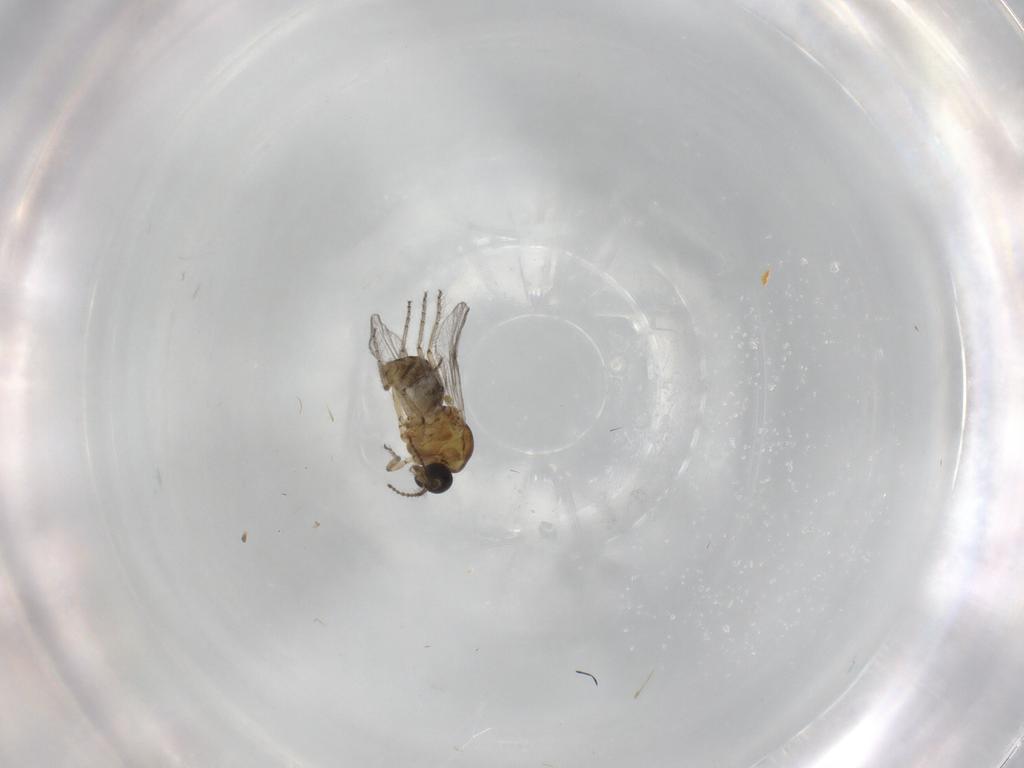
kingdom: Animalia
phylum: Arthropoda
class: Insecta
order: Diptera
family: Ceratopogonidae
